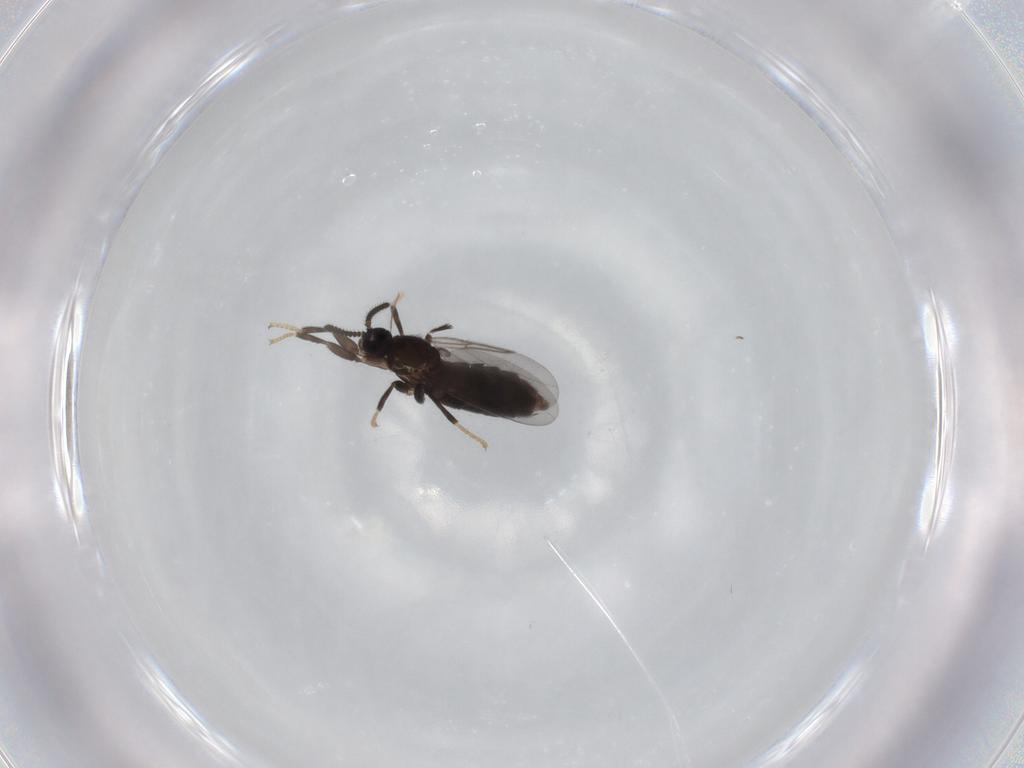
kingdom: Animalia
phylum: Arthropoda
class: Insecta
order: Diptera
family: Scatopsidae
